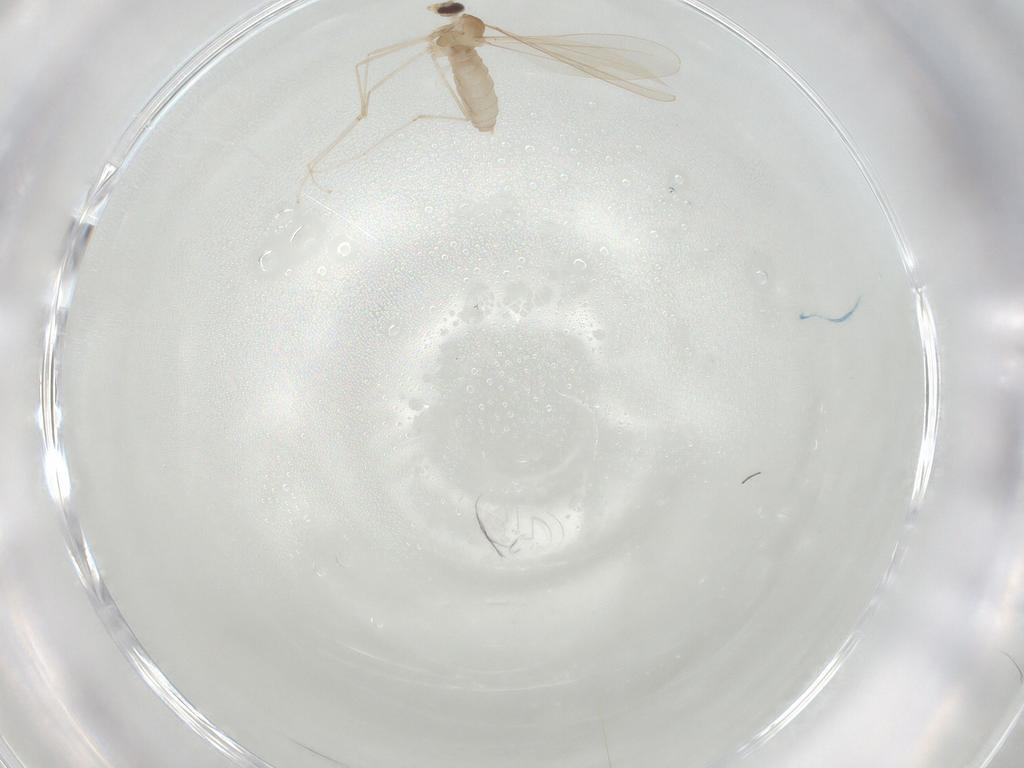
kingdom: Animalia
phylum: Arthropoda
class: Insecta
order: Diptera
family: Cecidomyiidae
